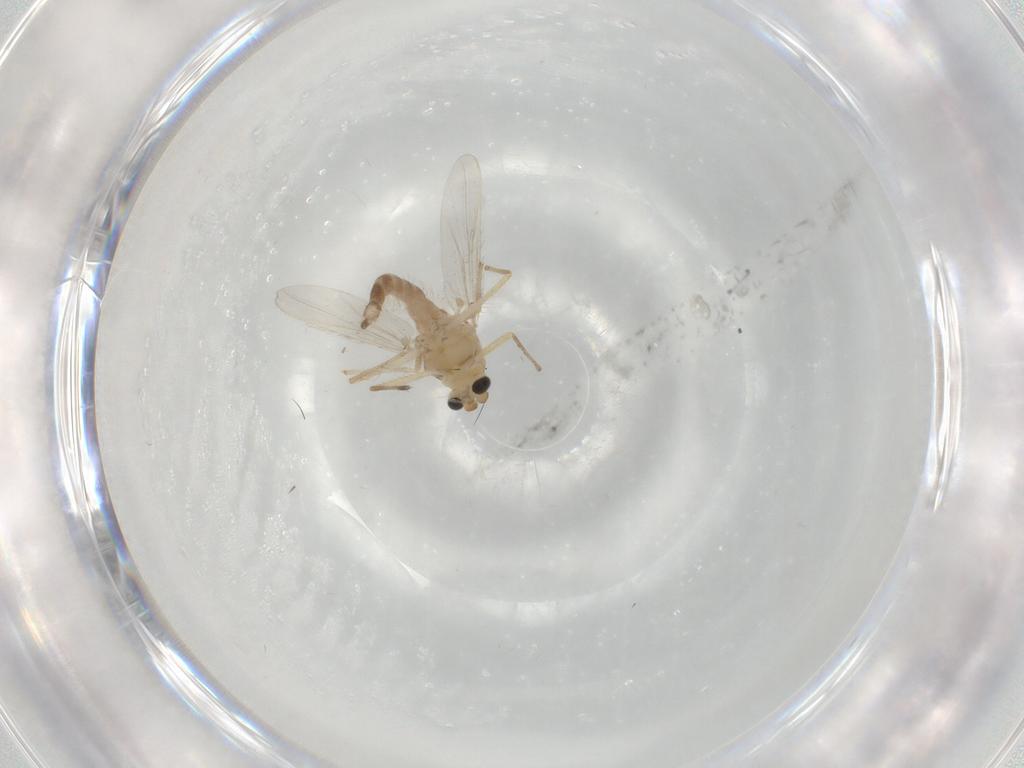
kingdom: Animalia
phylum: Arthropoda
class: Insecta
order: Diptera
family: Chironomidae
